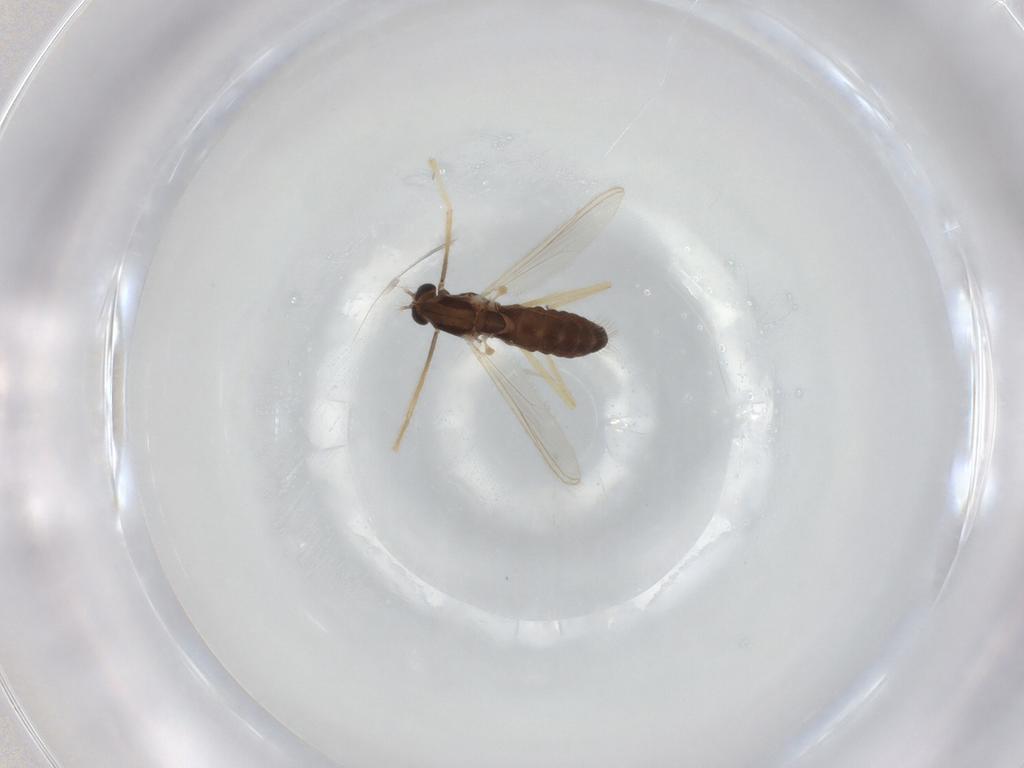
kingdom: Animalia
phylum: Arthropoda
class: Insecta
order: Diptera
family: Chironomidae
